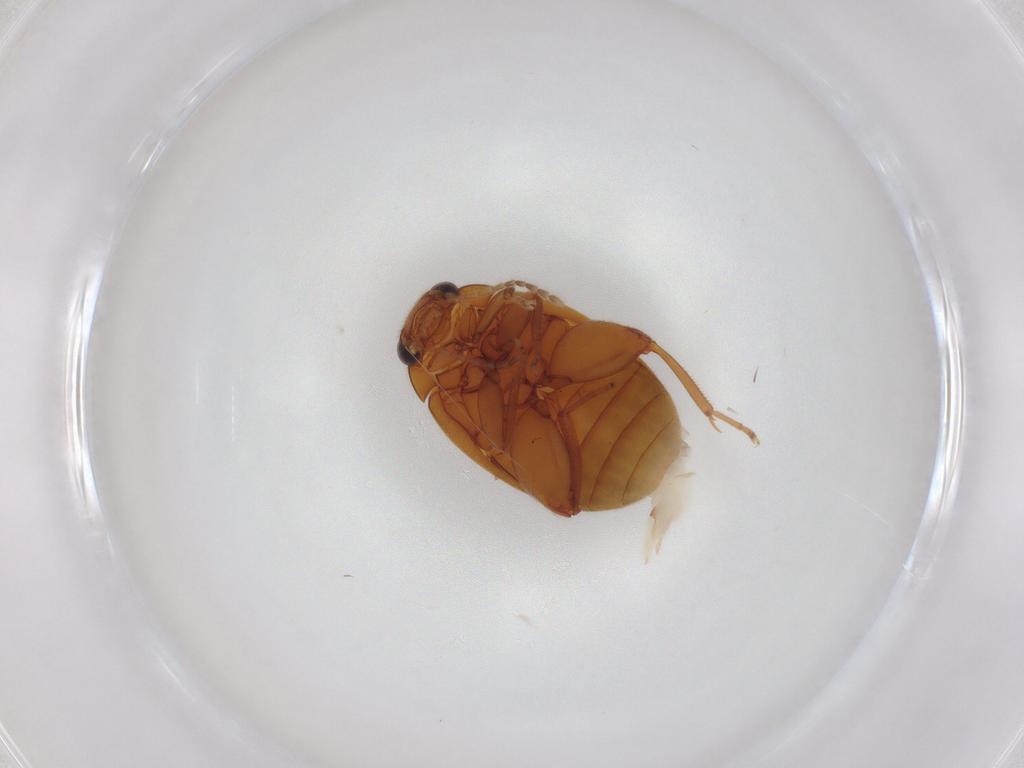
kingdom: Animalia
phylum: Arthropoda
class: Insecta
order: Coleoptera
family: Scirtidae
